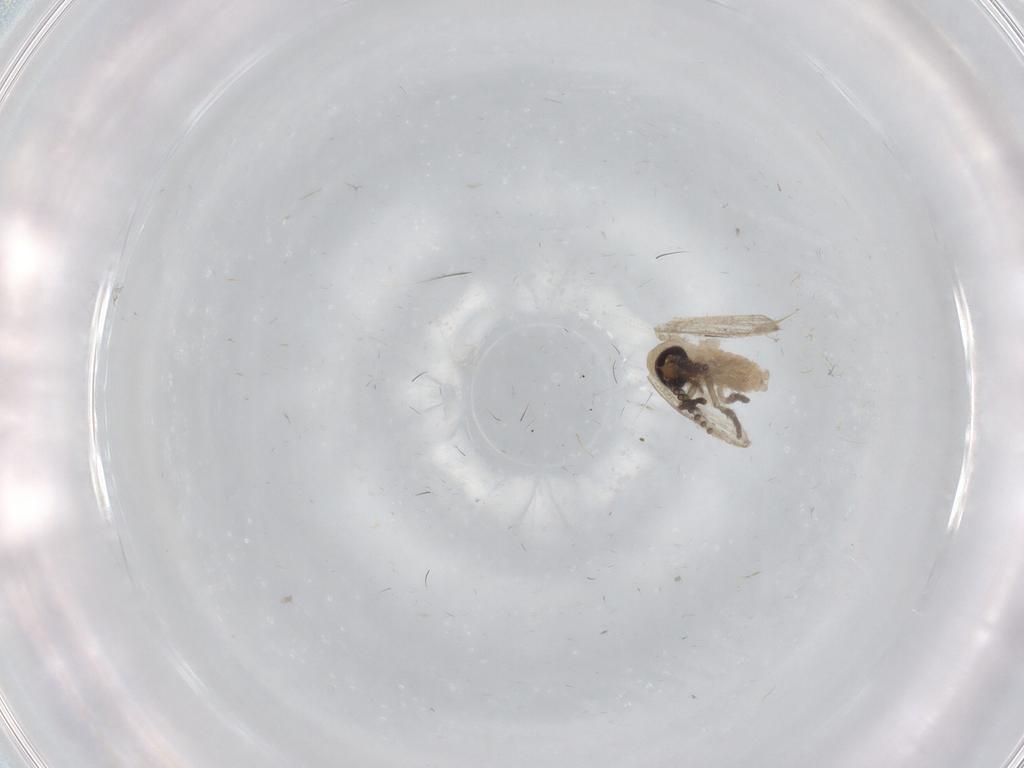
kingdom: Animalia
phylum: Arthropoda
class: Insecta
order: Diptera
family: Psychodidae
